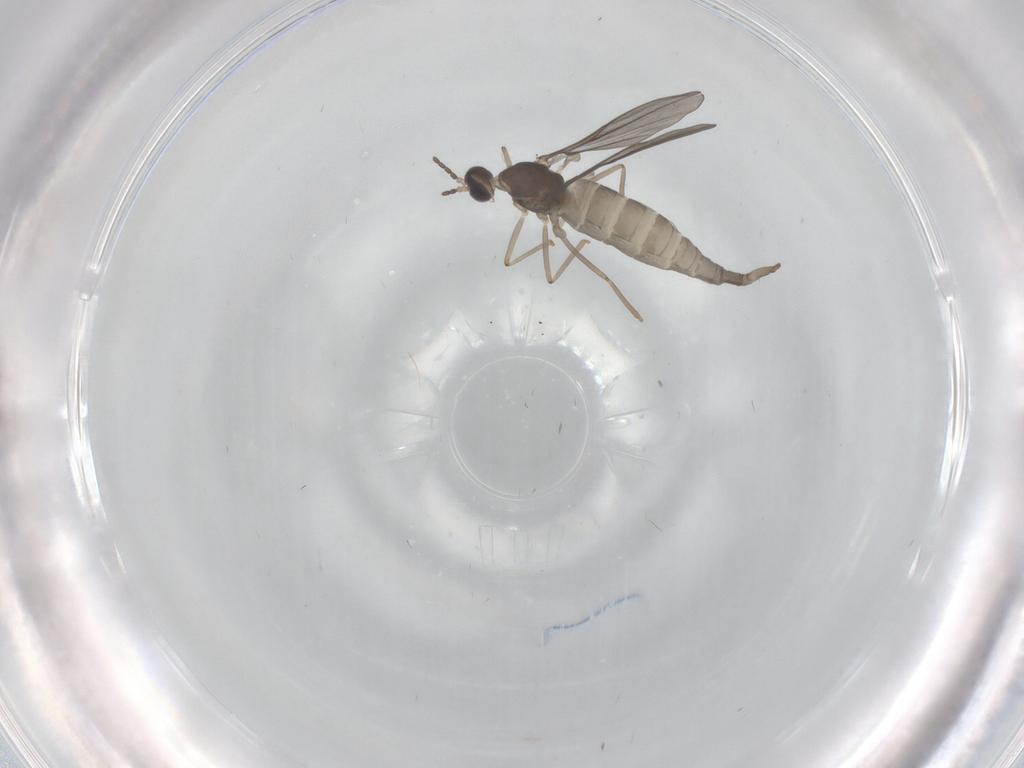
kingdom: Animalia
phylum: Arthropoda
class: Insecta
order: Diptera
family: Cecidomyiidae
